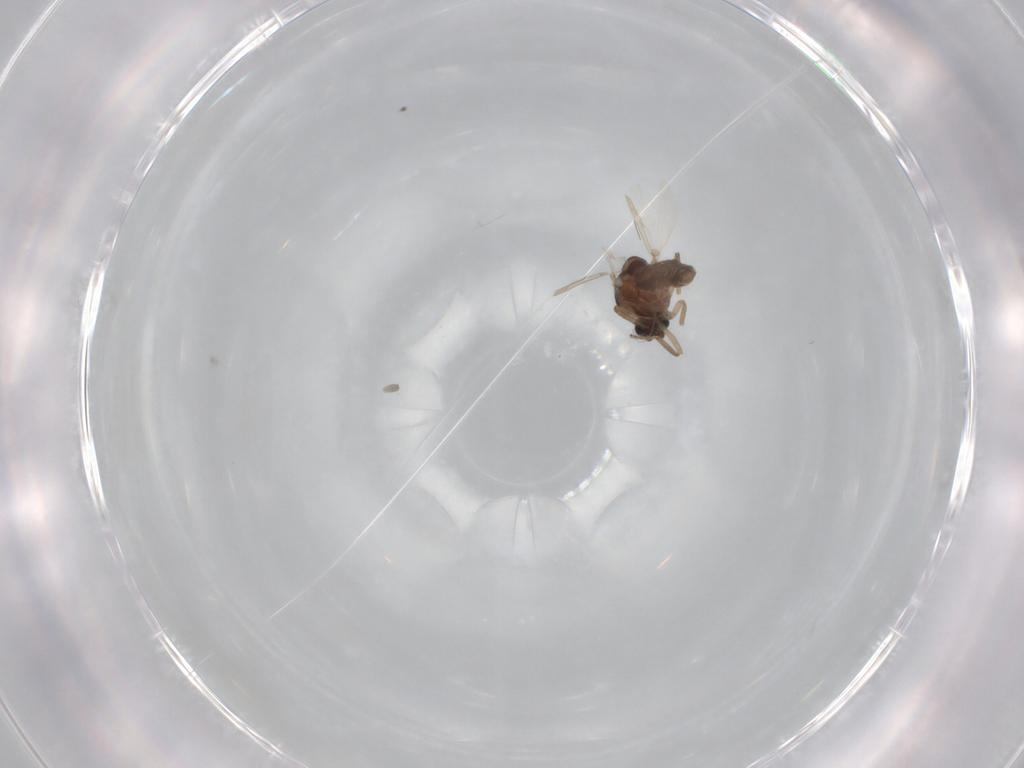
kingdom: Animalia
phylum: Arthropoda
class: Insecta
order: Diptera
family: Ceratopogonidae
